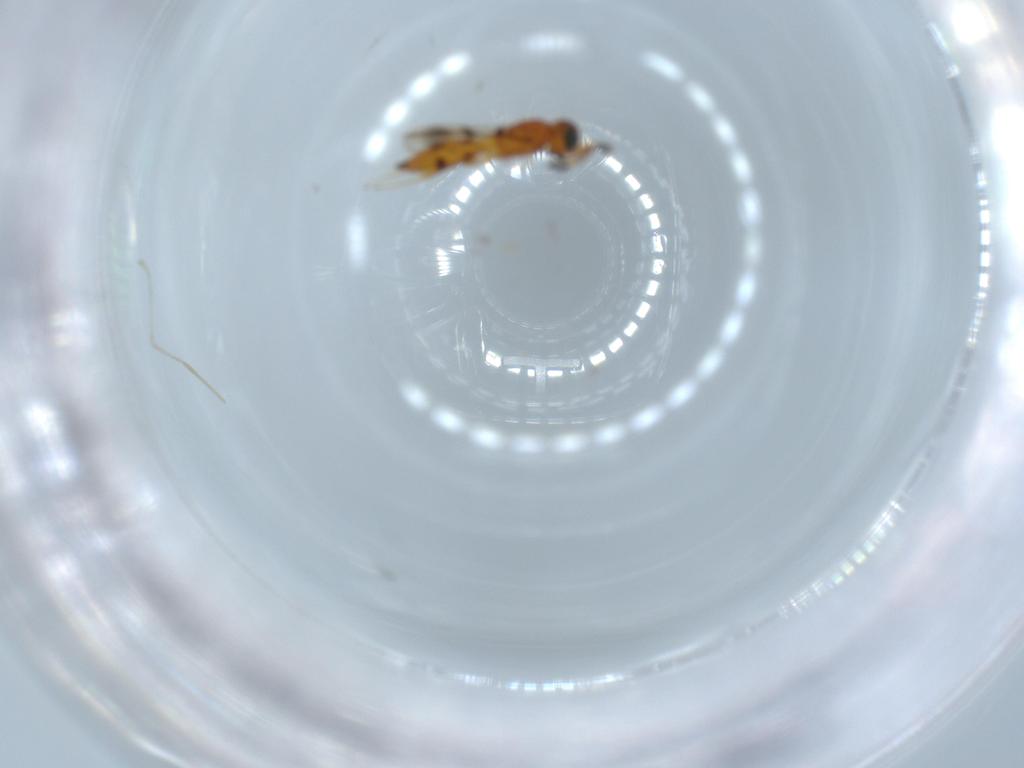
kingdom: Animalia
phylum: Arthropoda
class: Insecta
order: Hymenoptera
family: Scelionidae
